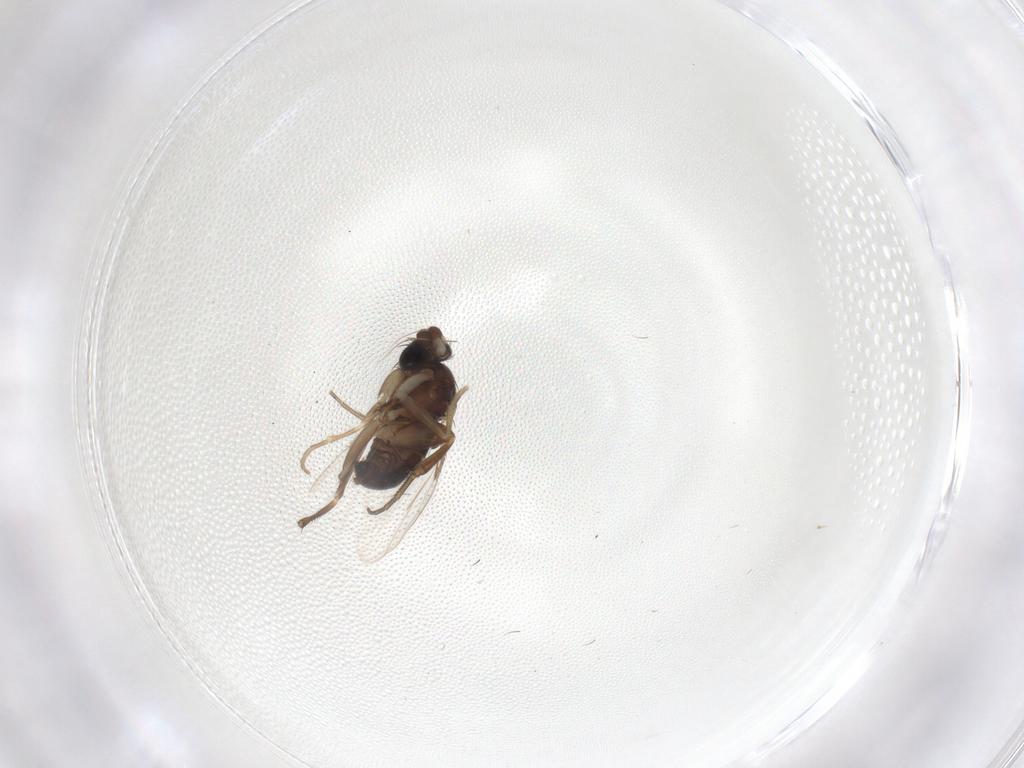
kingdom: Animalia
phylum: Arthropoda
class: Insecta
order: Diptera
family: Phoridae
